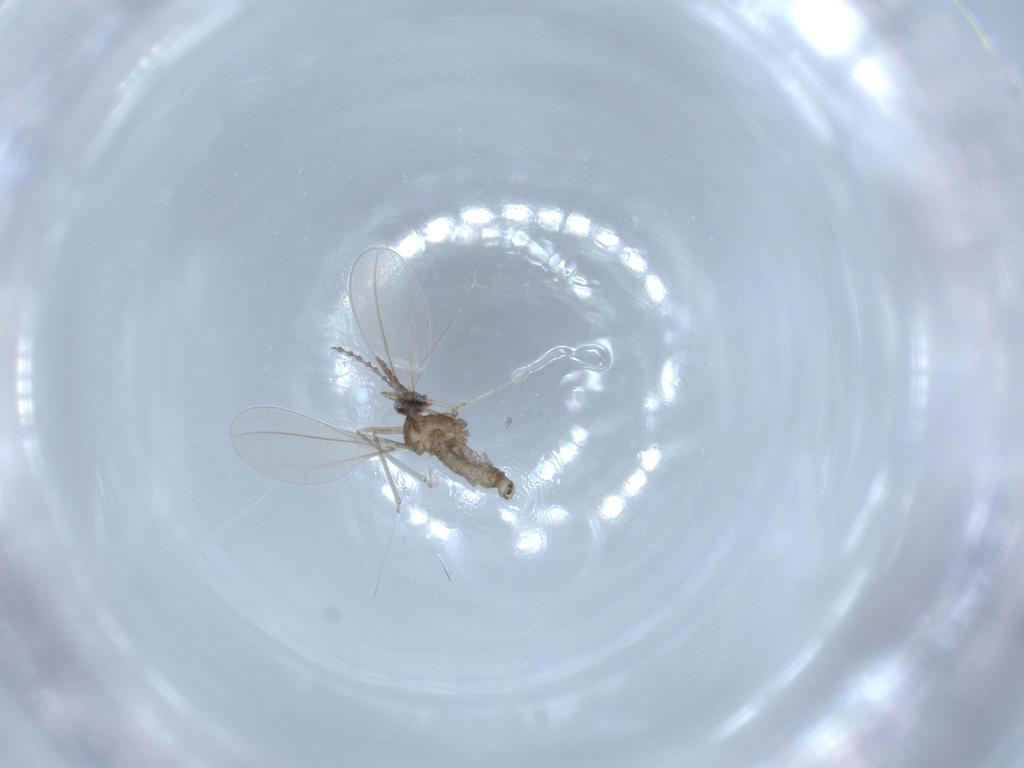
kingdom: Animalia
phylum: Arthropoda
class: Insecta
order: Diptera
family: Cecidomyiidae
